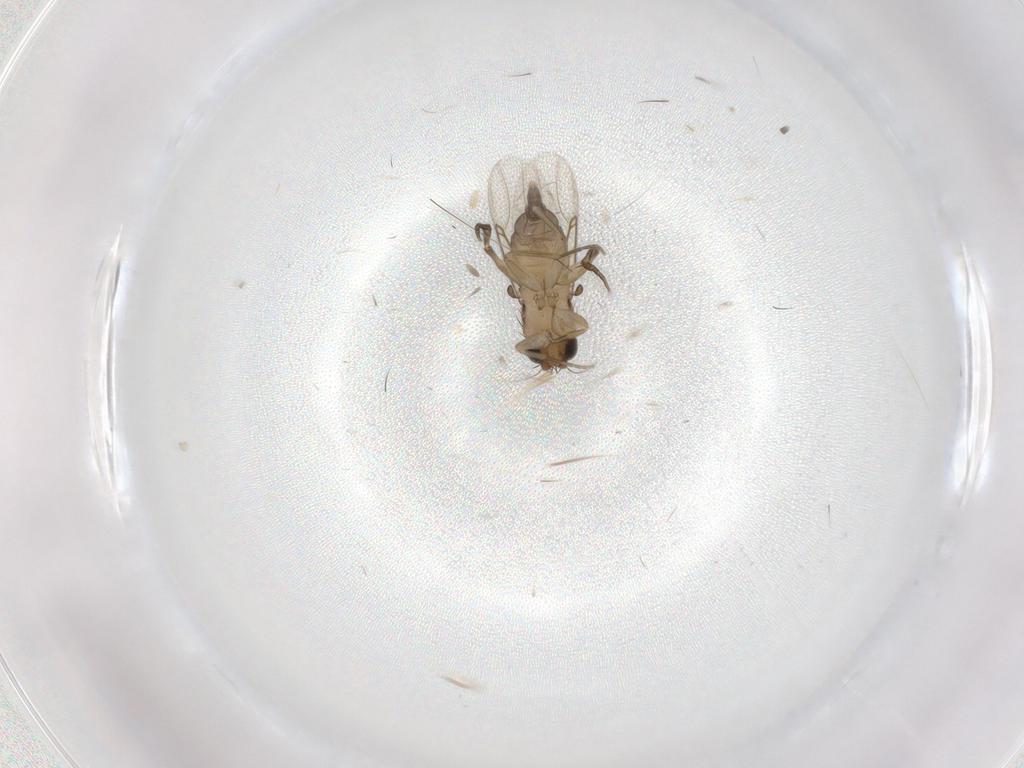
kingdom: Animalia
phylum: Arthropoda
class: Insecta
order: Diptera
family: Phoridae
